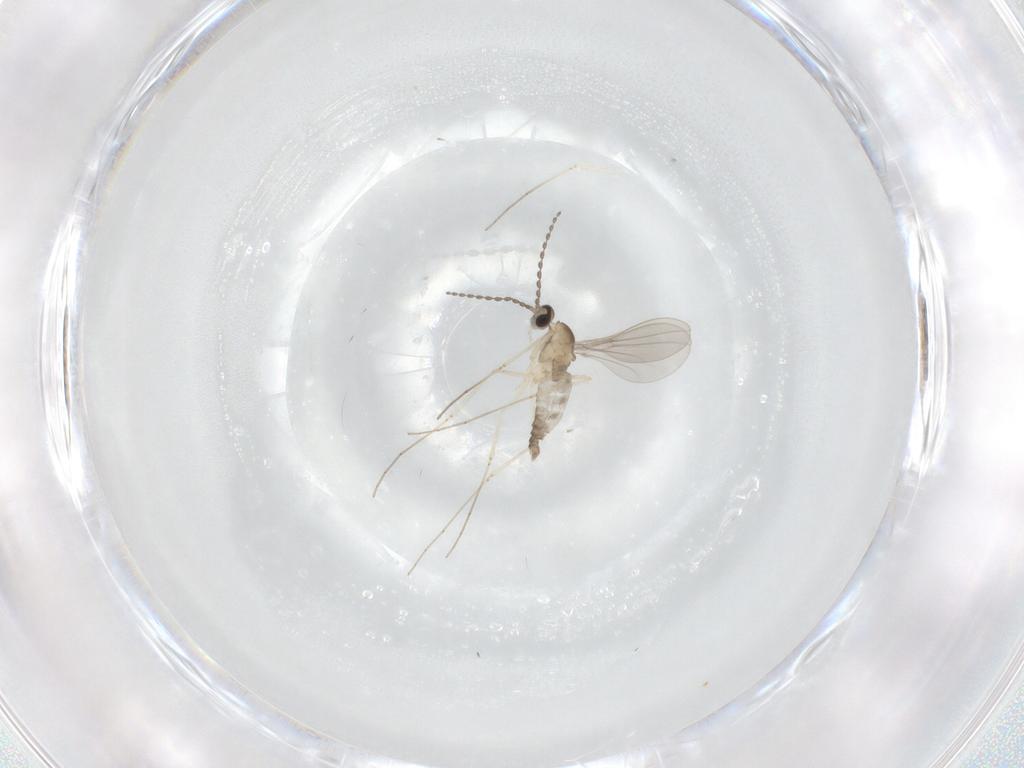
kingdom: Animalia
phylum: Arthropoda
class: Insecta
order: Diptera
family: Cecidomyiidae
